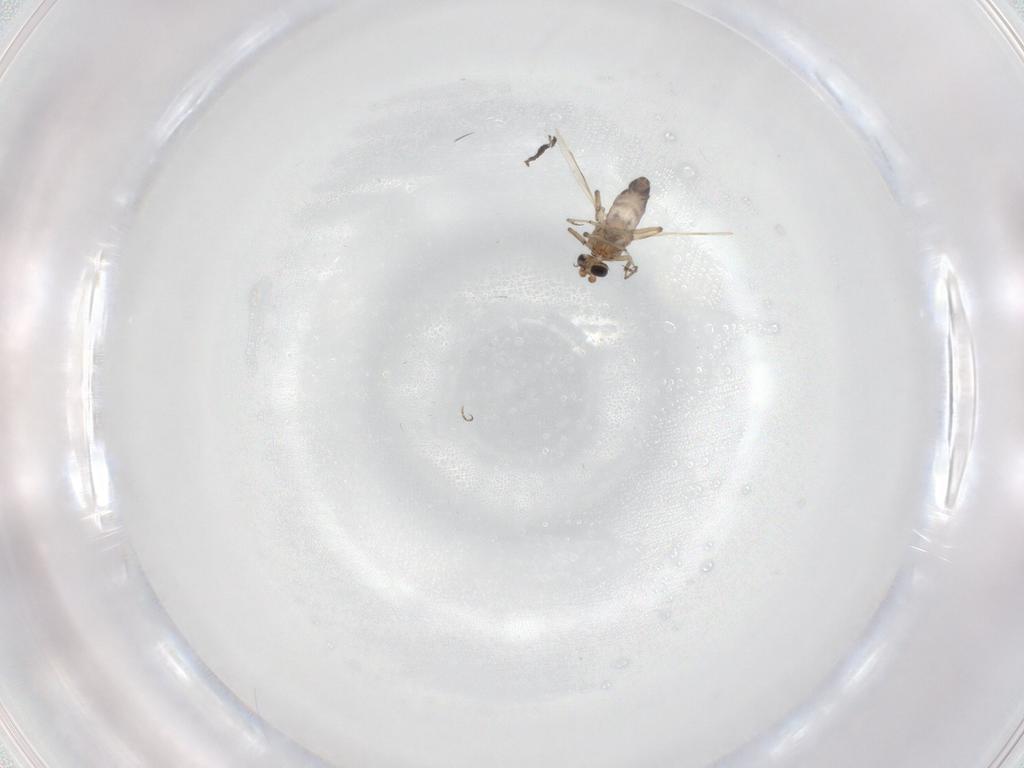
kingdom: Animalia
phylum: Arthropoda
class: Insecta
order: Diptera
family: Ceratopogonidae
